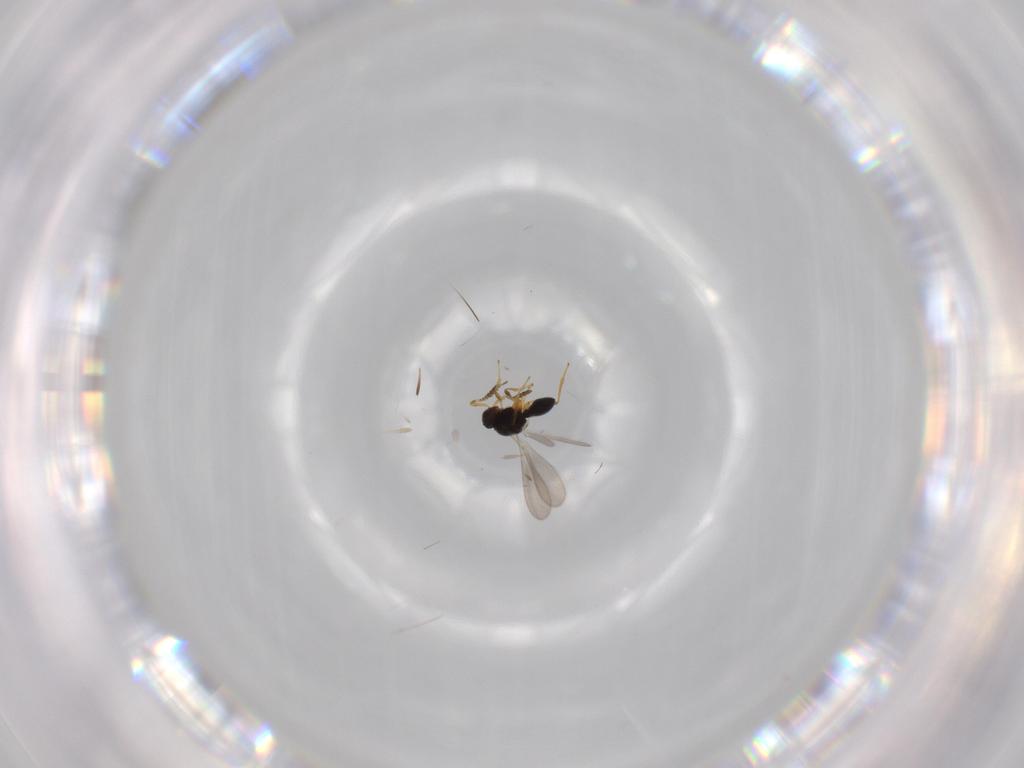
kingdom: Animalia
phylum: Arthropoda
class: Insecta
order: Hymenoptera
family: Platygastridae
